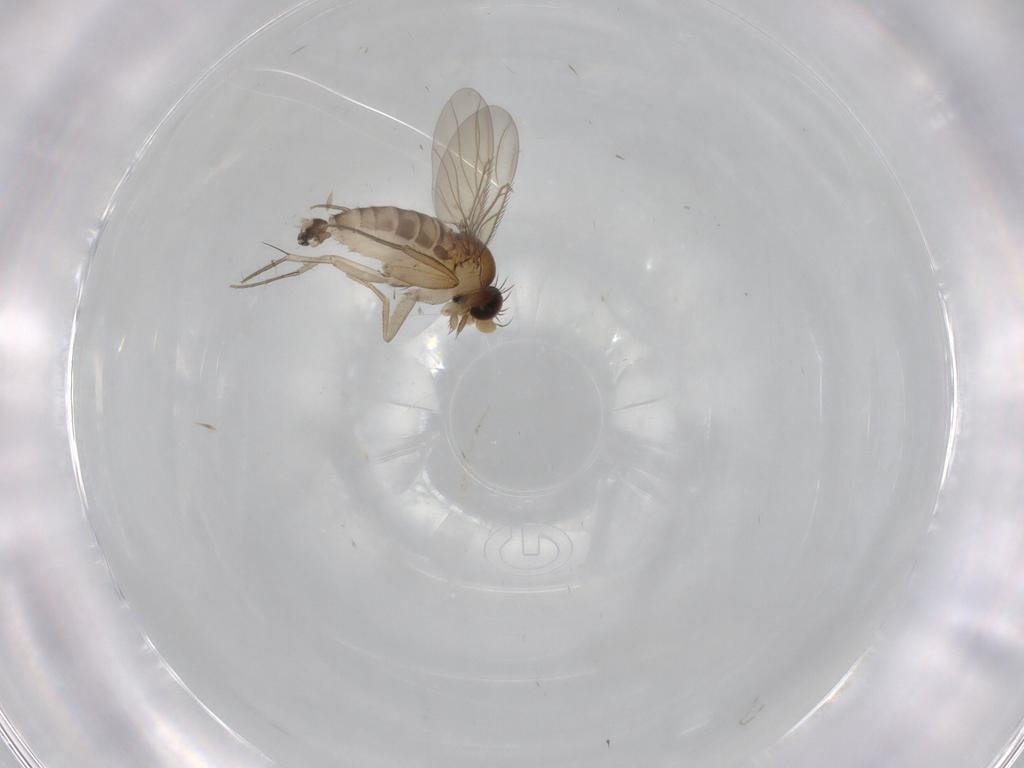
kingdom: Animalia
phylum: Arthropoda
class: Insecta
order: Diptera
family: Phoridae
